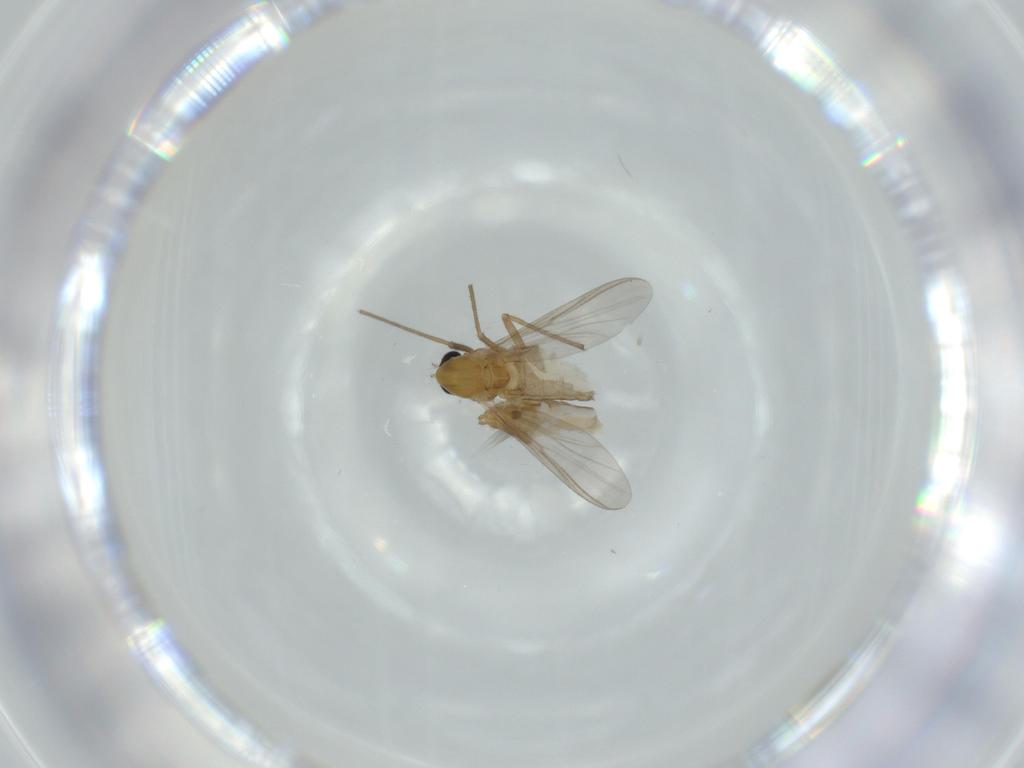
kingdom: Animalia
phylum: Arthropoda
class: Insecta
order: Diptera
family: Chironomidae
